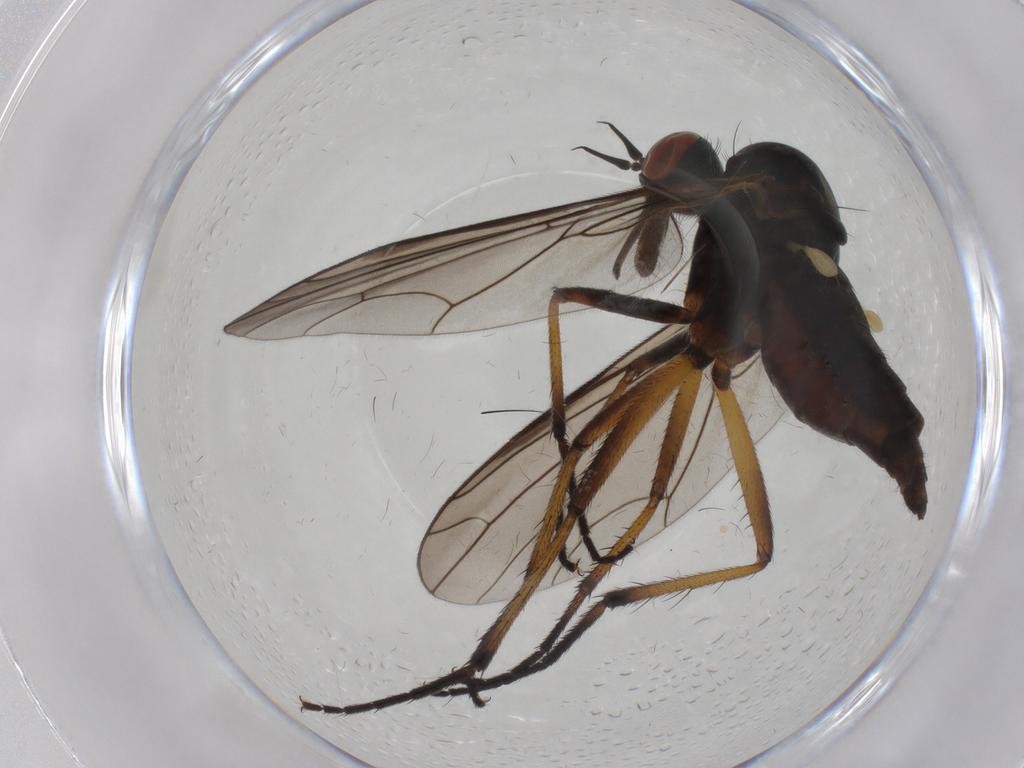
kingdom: Animalia
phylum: Arthropoda
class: Insecta
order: Diptera
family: Empididae
